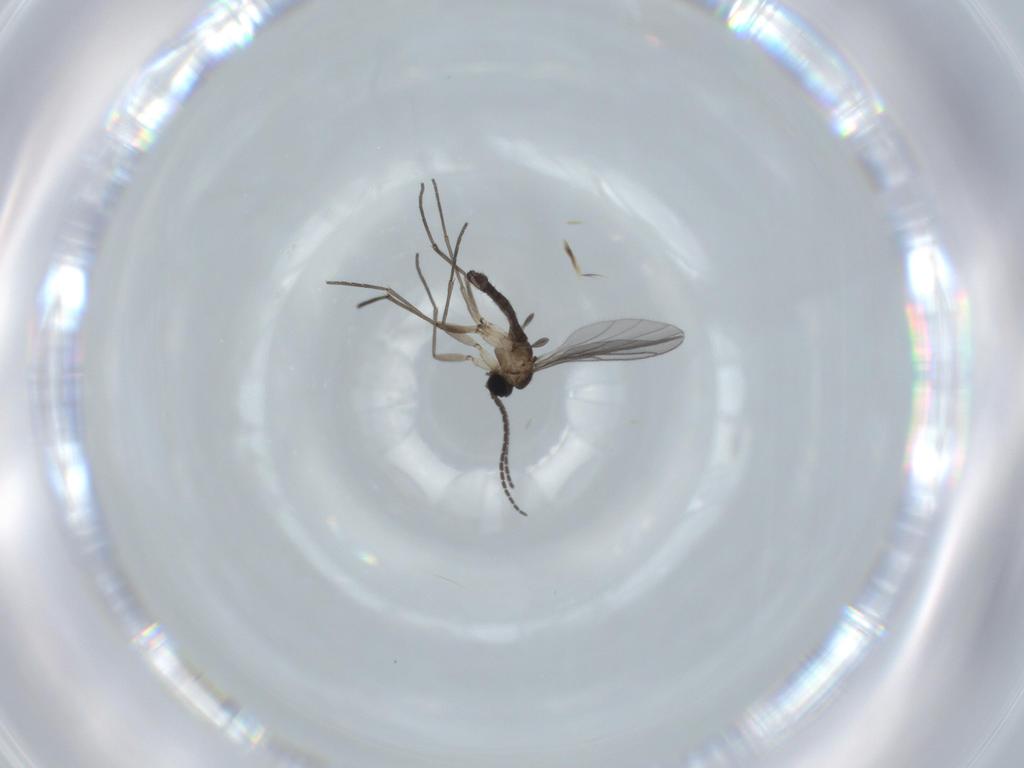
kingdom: Animalia
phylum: Arthropoda
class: Insecta
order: Diptera
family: Sciaridae
